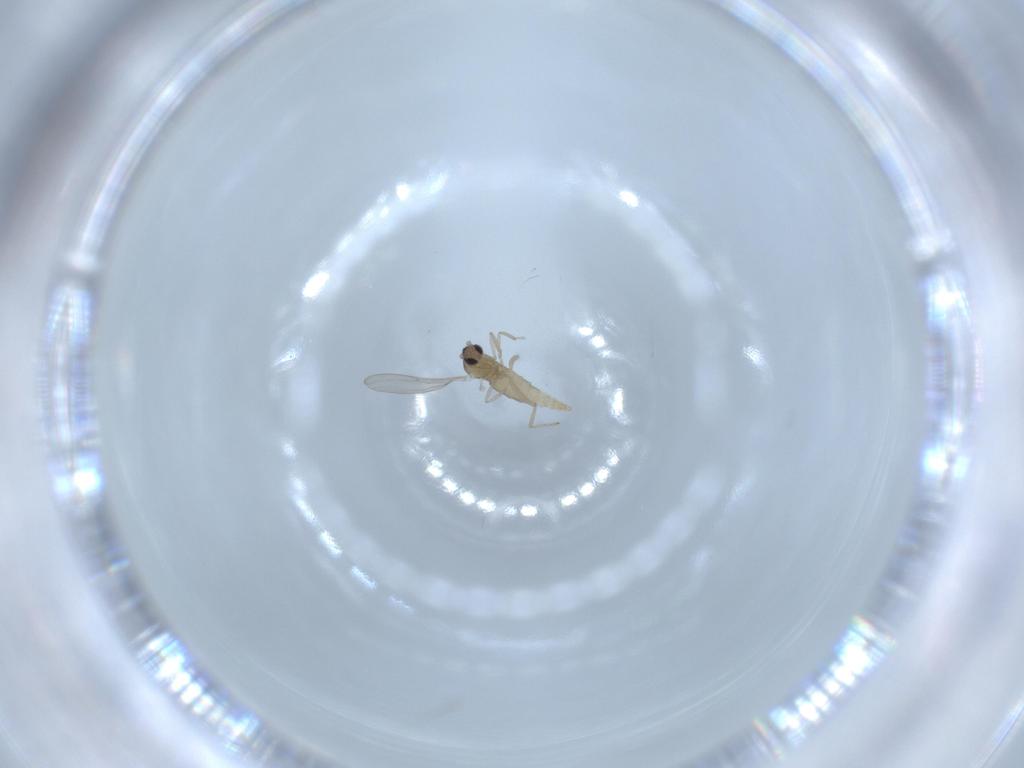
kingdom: Animalia
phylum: Arthropoda
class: Insecta
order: Diptera
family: Cecidomyiidae
